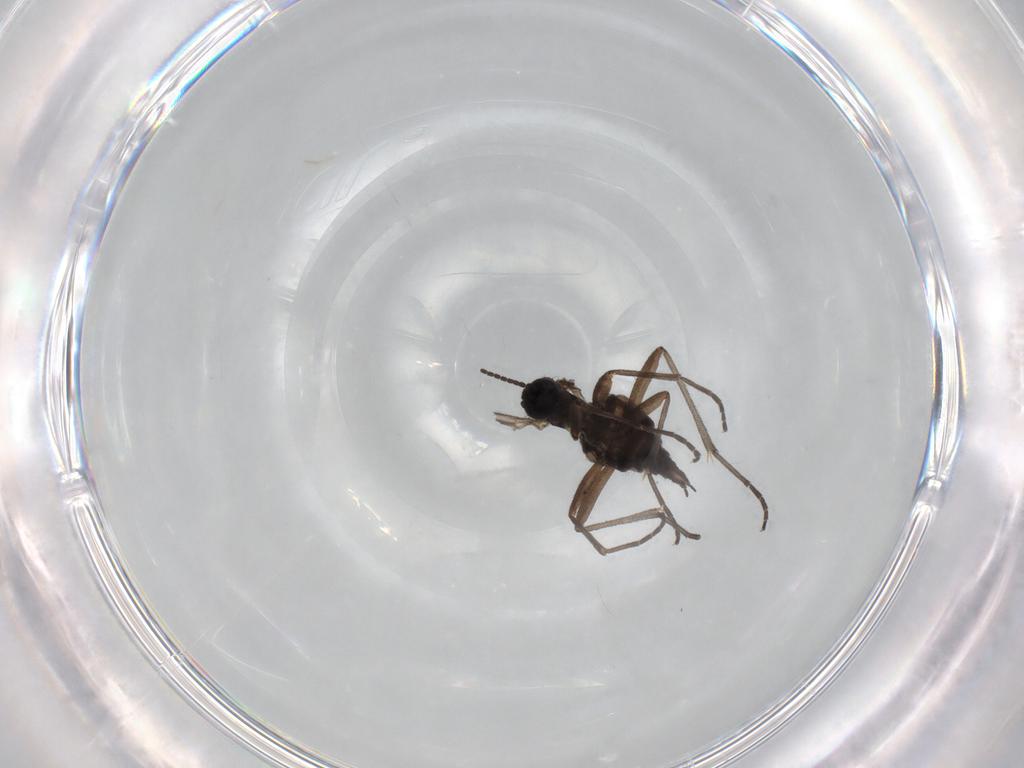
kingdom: Animalia
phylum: Arthropoda
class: Insecta
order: Diptera
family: Sciaridae
